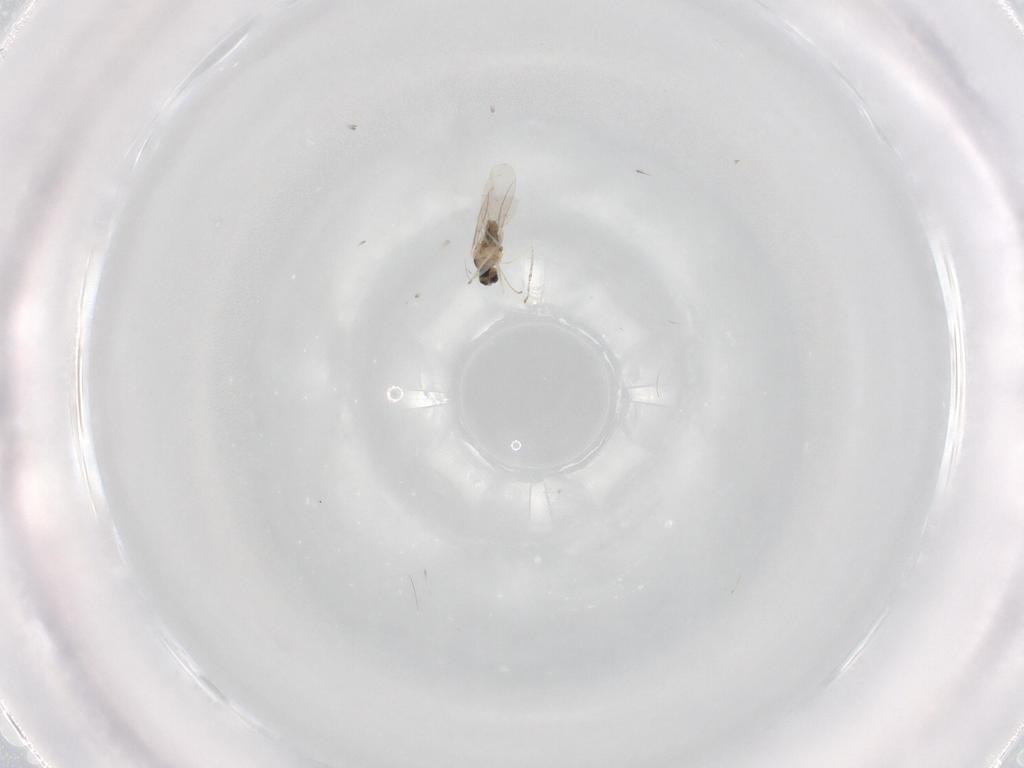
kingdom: Animalia
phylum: Arthropoda
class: Insecta
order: Diptera
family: Cecidomyiidae
